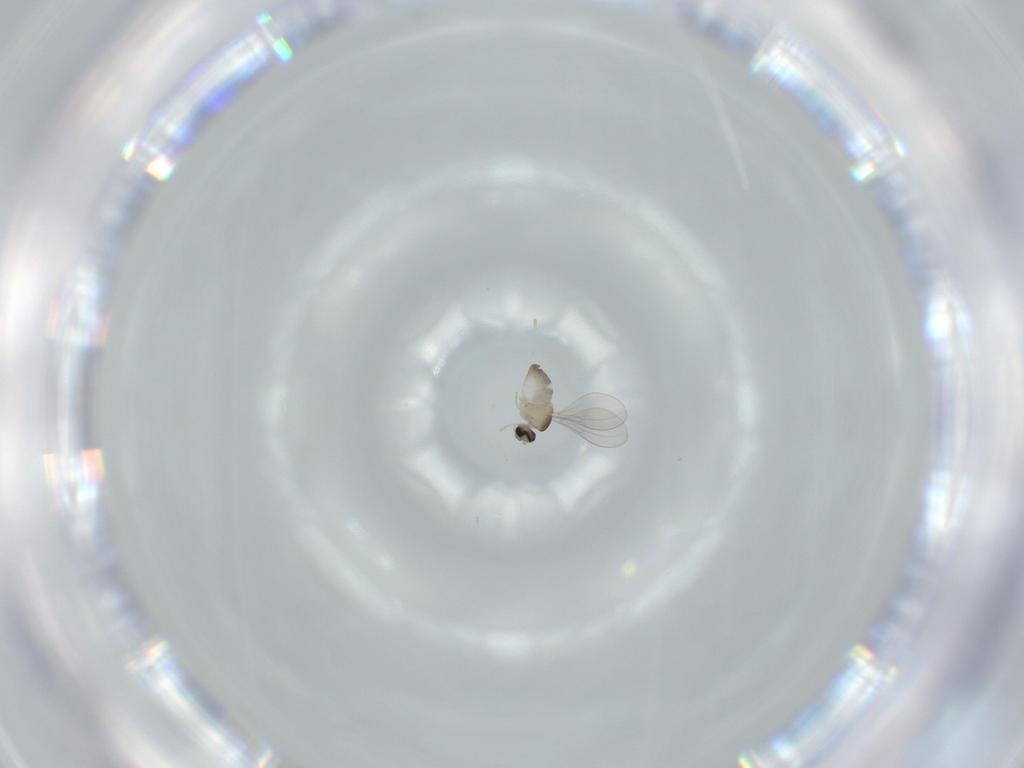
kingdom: Animalia
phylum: Arthropoda
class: Insecta
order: Diptera
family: Cecidomyiidae
